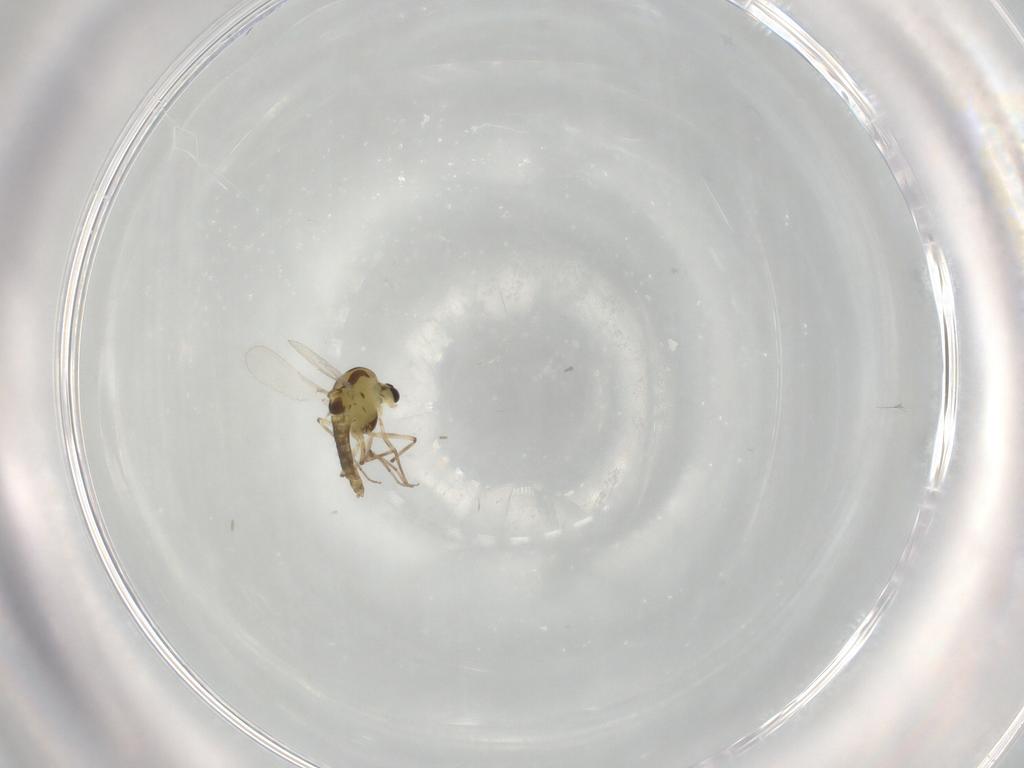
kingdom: Animalia
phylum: Arthropoda
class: Insecta
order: Diptera
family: Chironomidae
